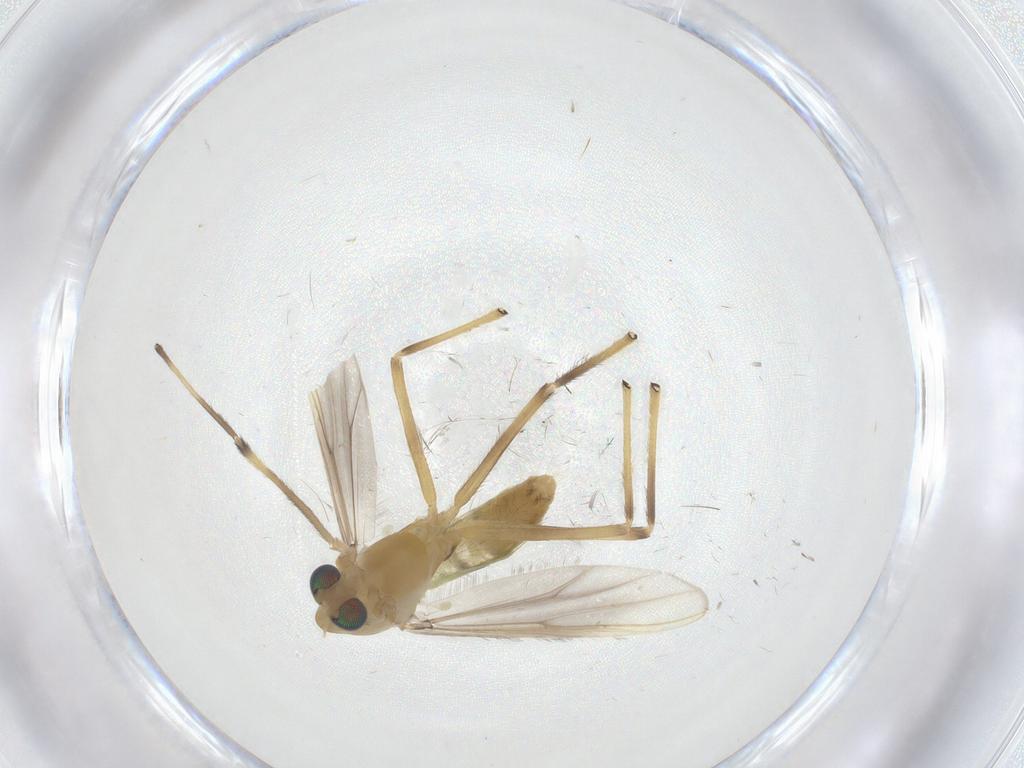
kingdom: Animalia
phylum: Arthropoda
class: Insecta
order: Diptera
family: Chironomidae
